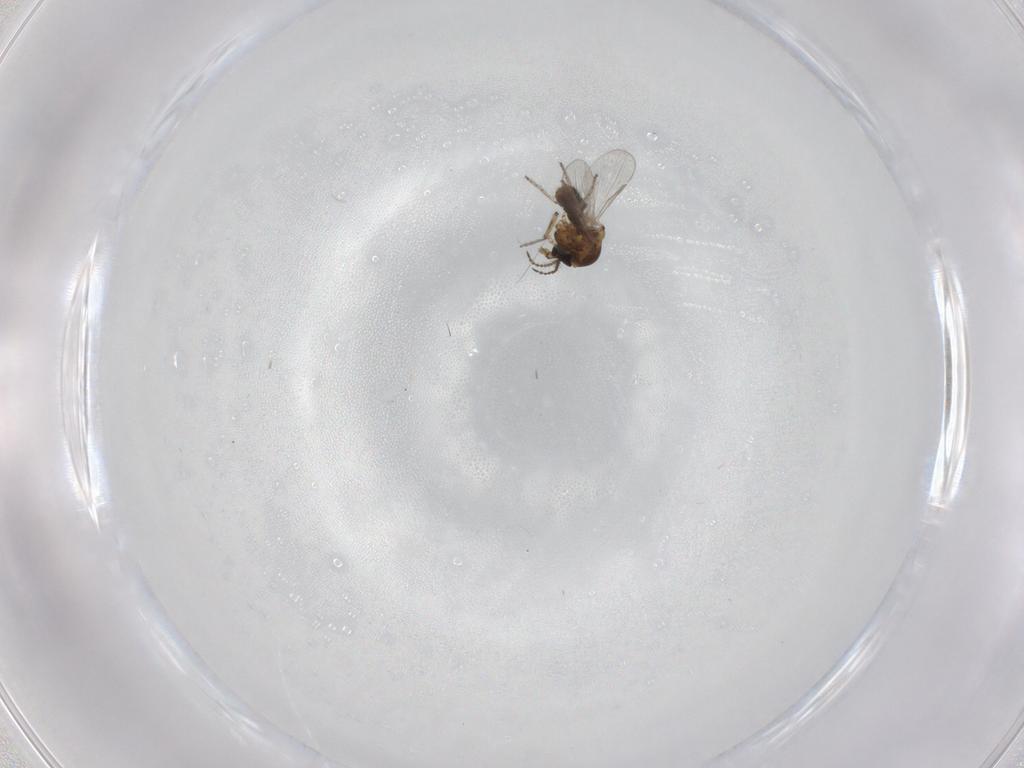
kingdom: Animalia
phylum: Arthropoda
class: Insecta
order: Diptera
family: Ceratopogonidae
